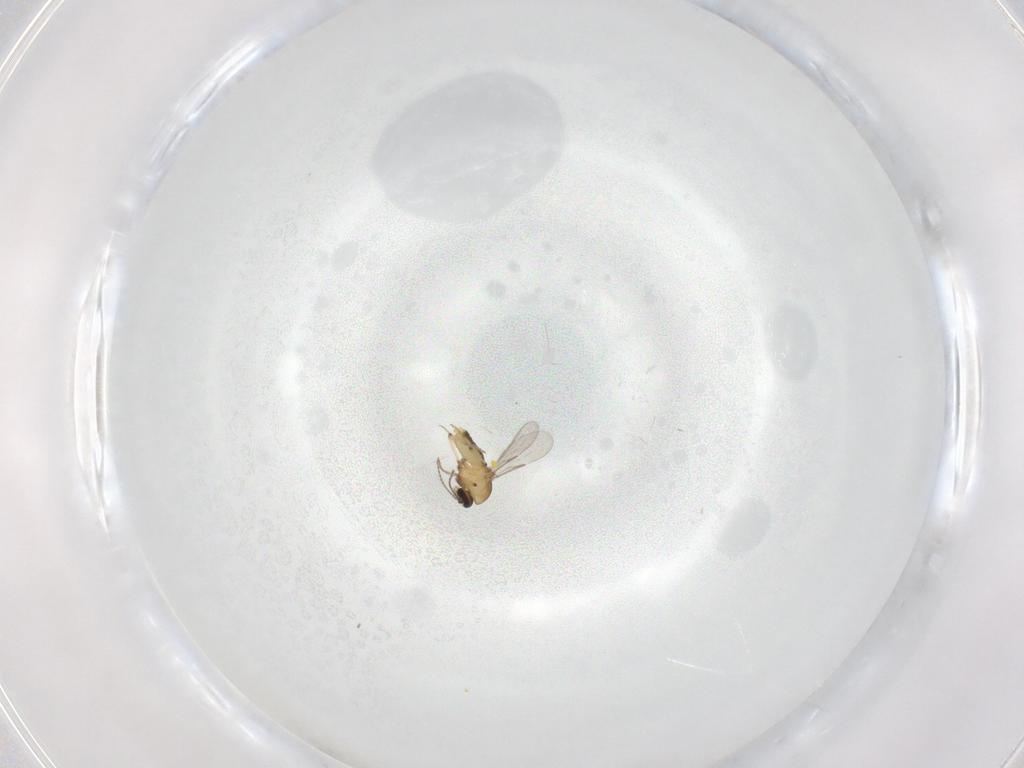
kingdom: Animalia
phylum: Arthropoda
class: Insecta
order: Diptera
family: Ceratopogonidae
